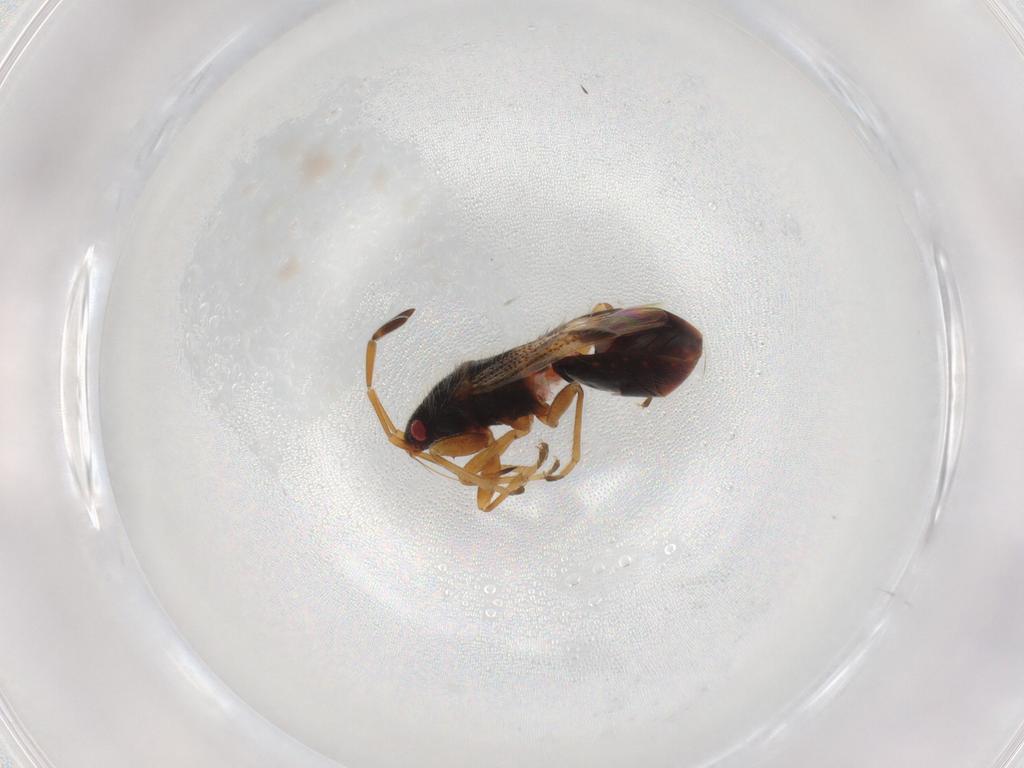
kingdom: Animalia
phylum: Arthropoda
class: Insecta
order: Hemiptera
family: Rhyparochromidae
